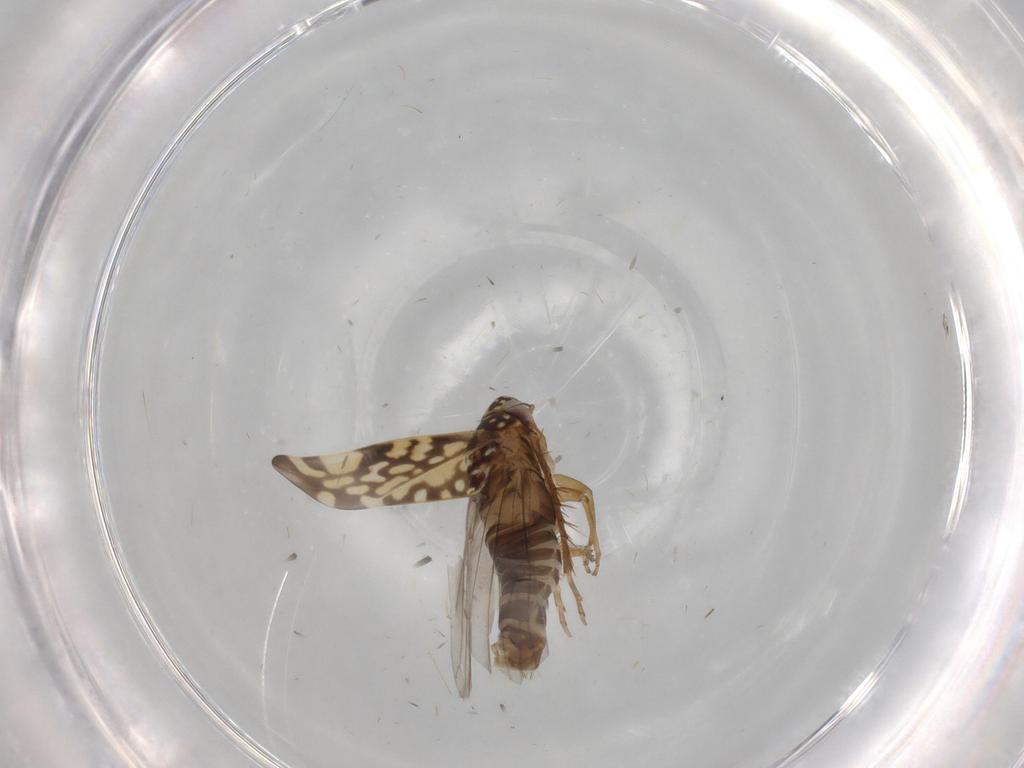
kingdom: Animalia
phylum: Arthropoda
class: Insecta
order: Hemiptera
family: Cicadellidae
